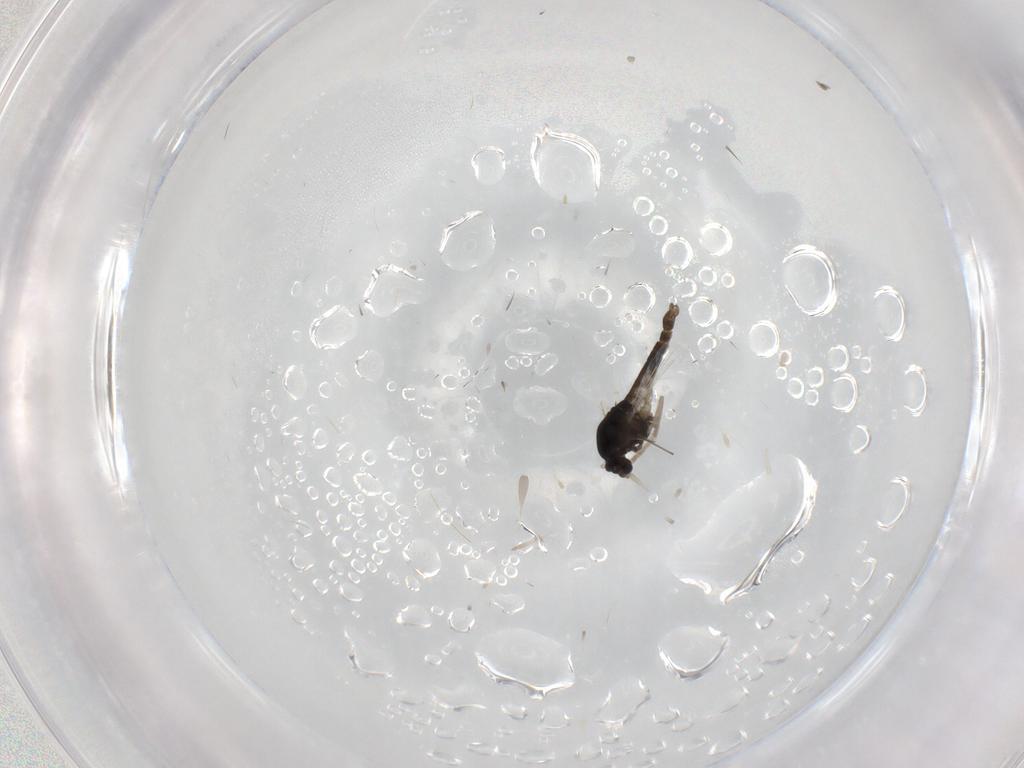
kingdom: Animalia
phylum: Arthropoda
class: Insecta
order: Diptera
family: Chironomidae
